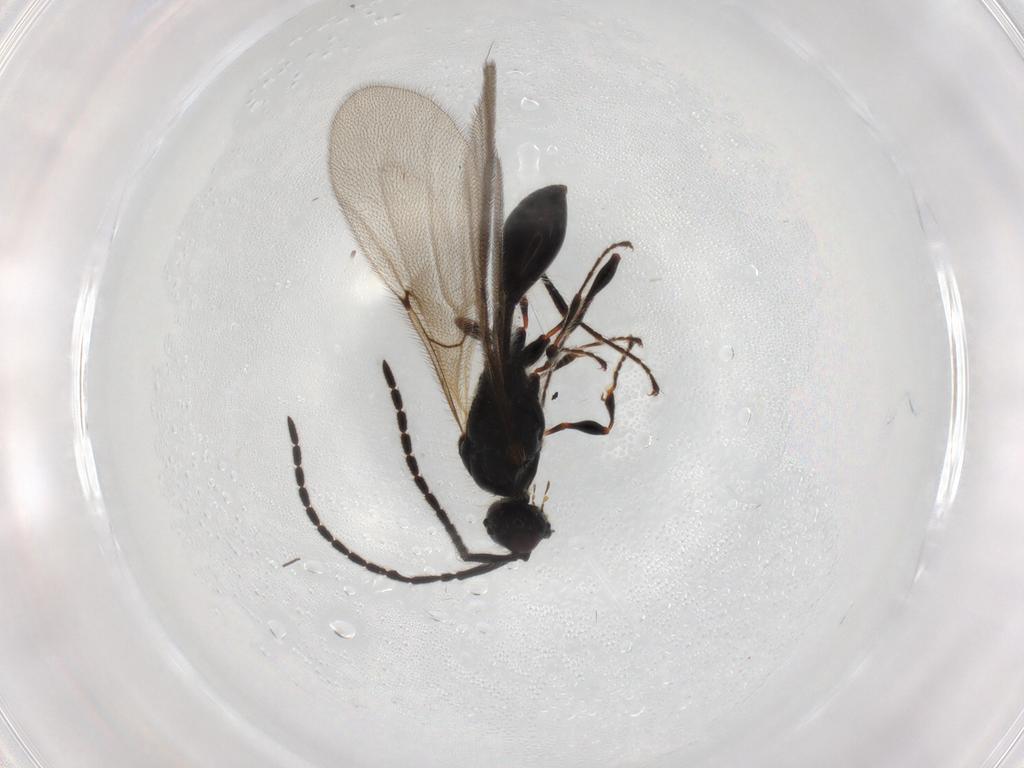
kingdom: Animalia
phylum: Arthropoda
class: Insecta
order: Hymenoptera
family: Diapriidae
